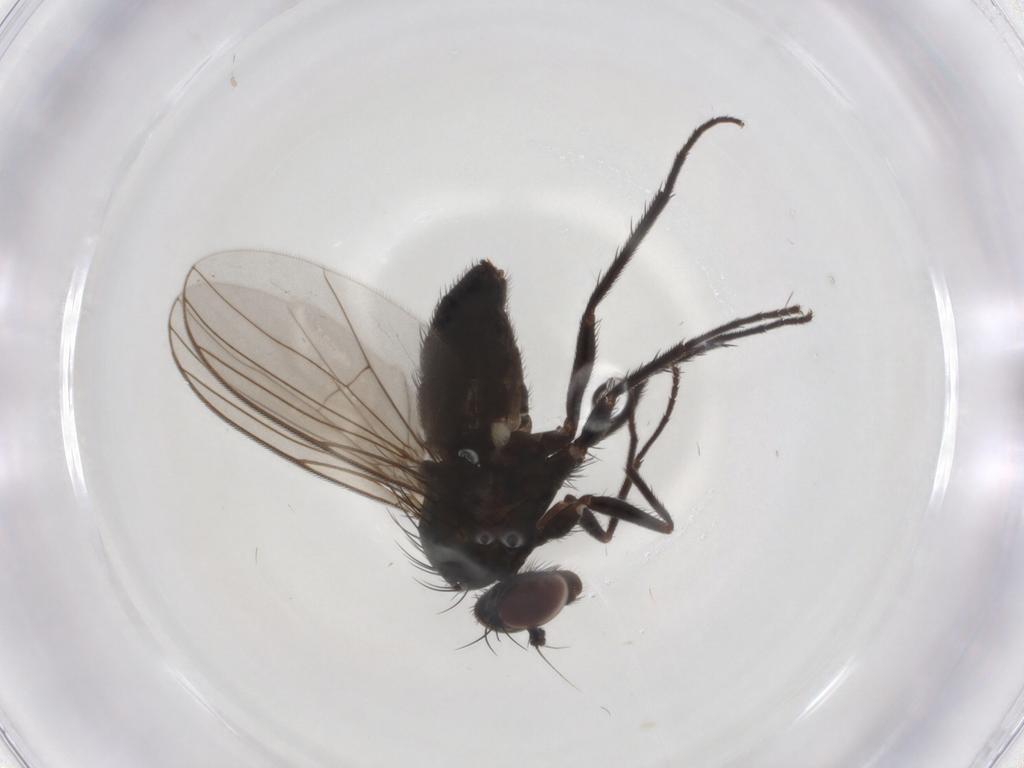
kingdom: Animalia
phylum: Arthropoda
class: Insecta
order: Diptera
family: Dolichopodidae
